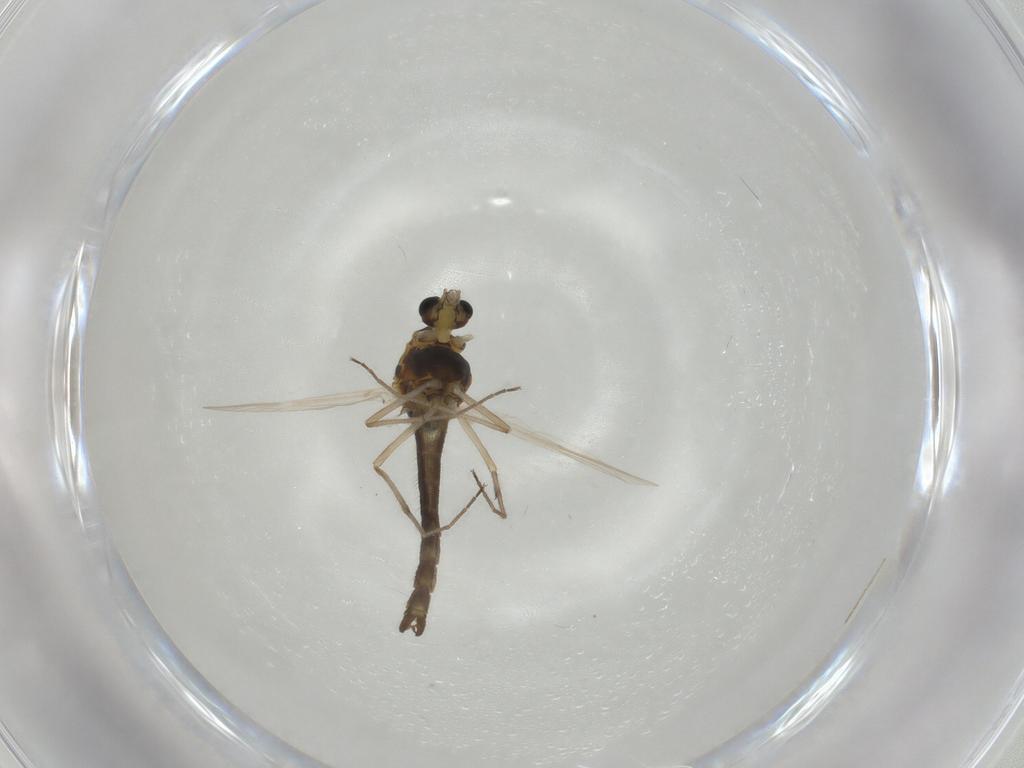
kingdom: Animalia
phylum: Arthropoda
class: Insecta
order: Diptera
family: Chironomidae
